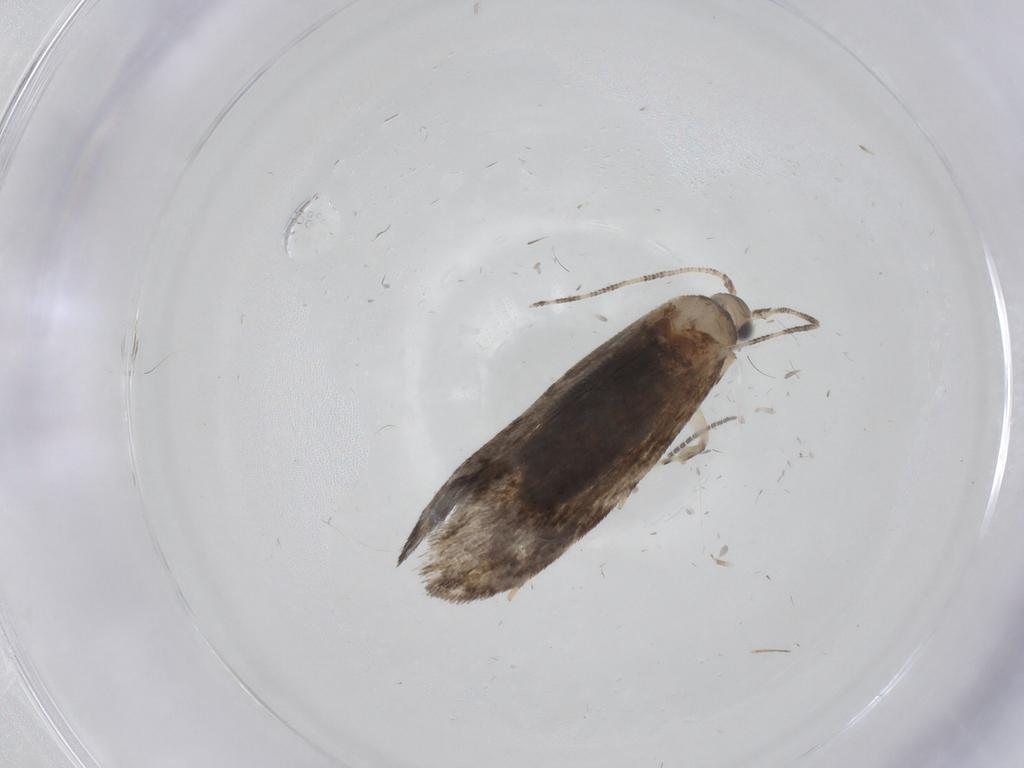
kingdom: Animalia
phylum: Arthropoda
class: Insecta
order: Lepidoptera
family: Tineidae
